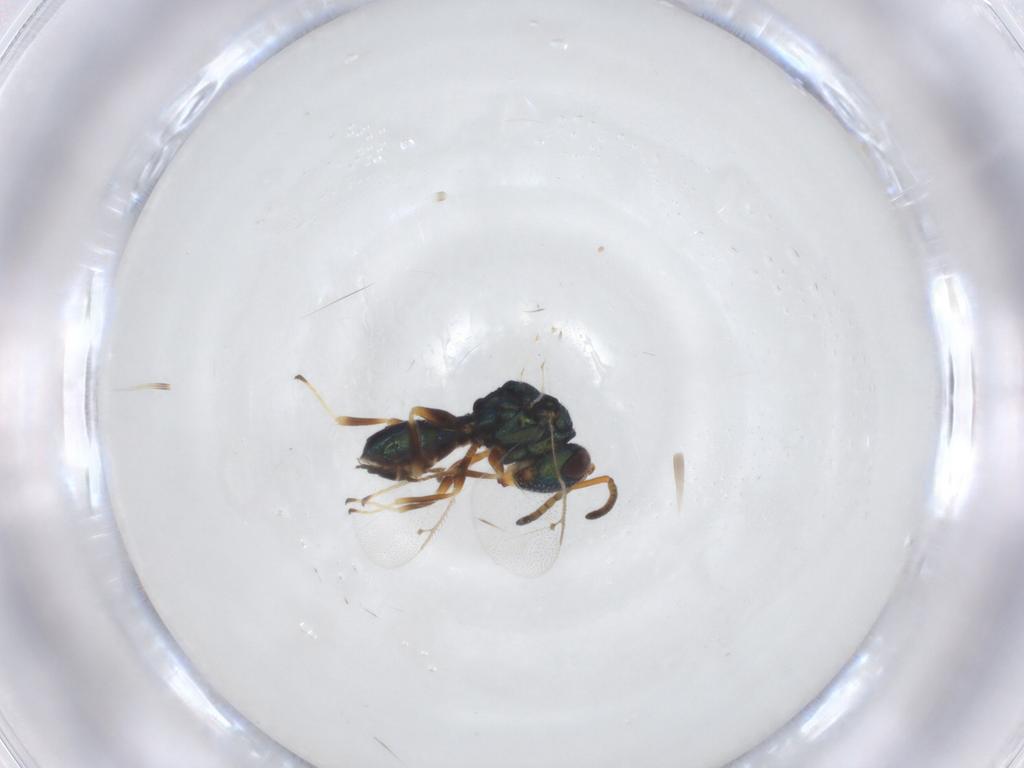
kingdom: Animalia
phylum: Arthropoda
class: Insecta
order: Hymenoptera
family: Pteromalidae
